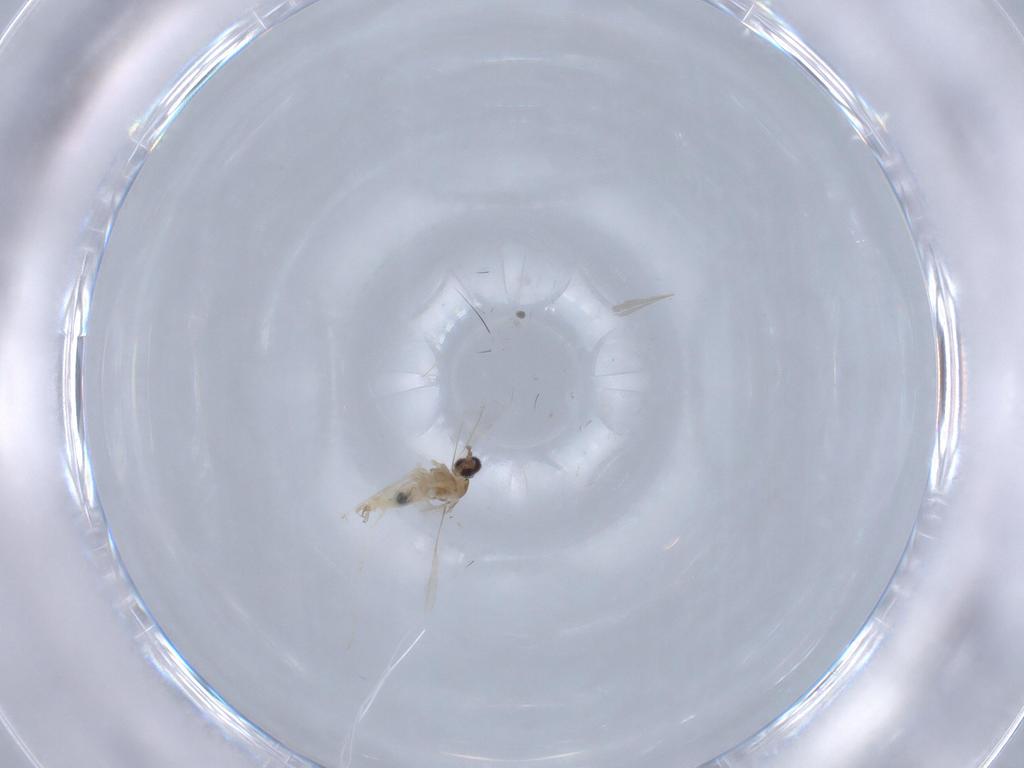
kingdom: Animalia
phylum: Arthropoda
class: Insecta
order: Diptera
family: Cecidomyiidae
